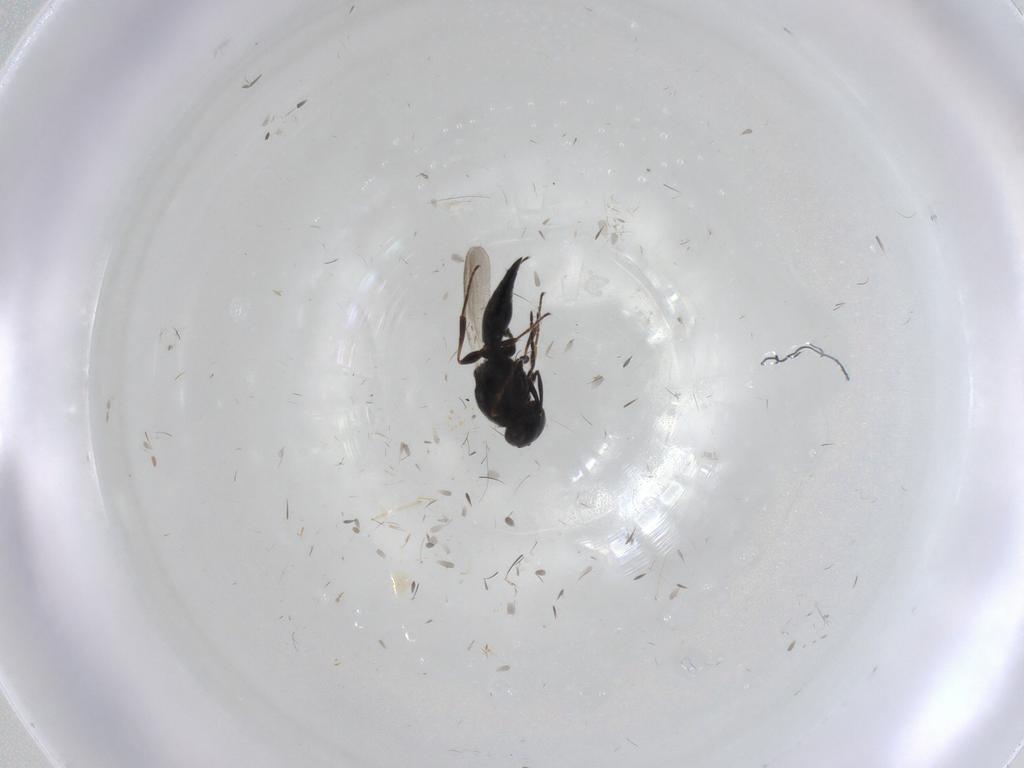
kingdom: Animalia
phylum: Arthropoda
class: Insecta
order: Hymenoptera
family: Platygastridae
